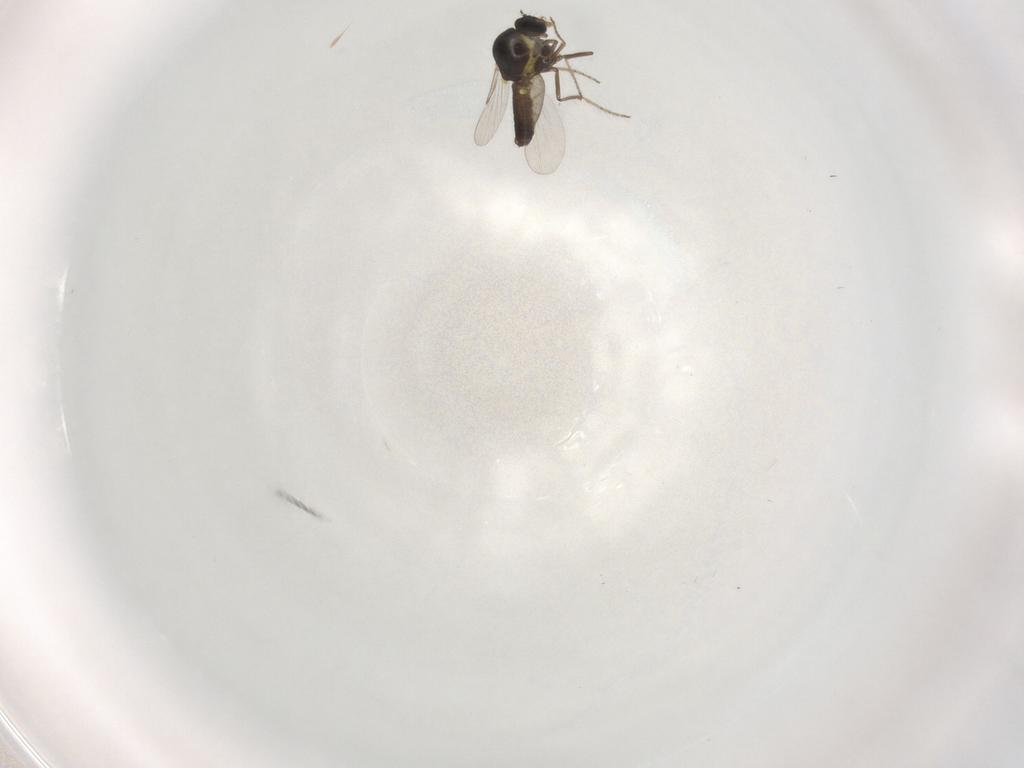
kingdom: Animalia
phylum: Arthropoda
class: Insecta
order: Diptera
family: Ceratopogonidae
